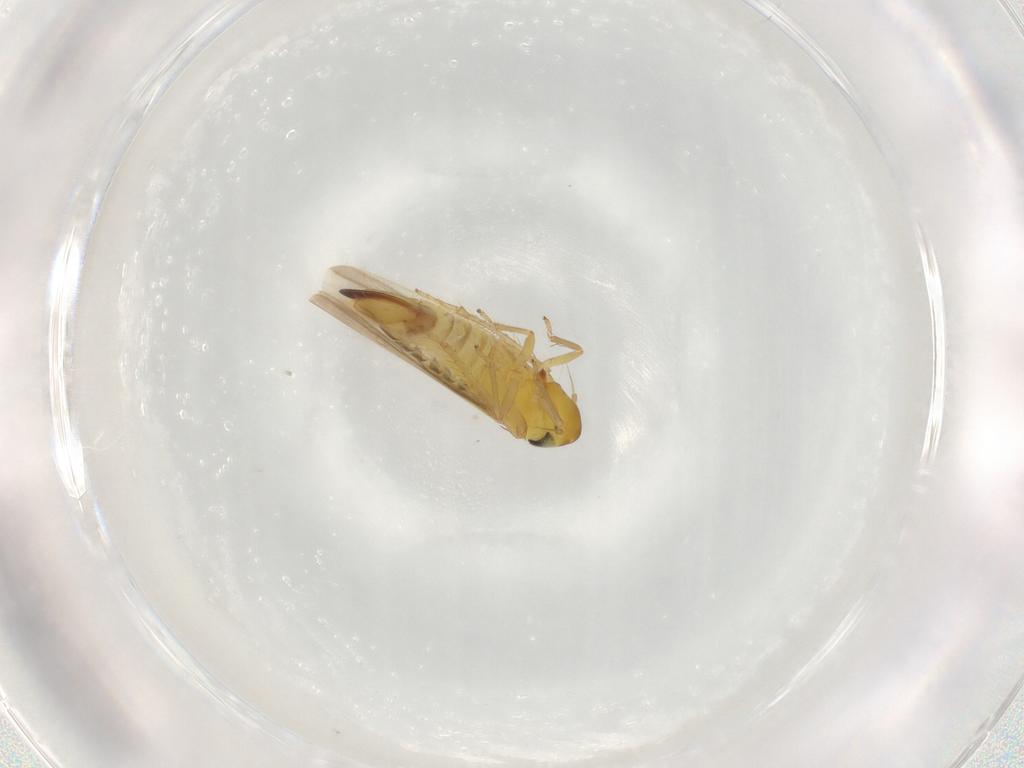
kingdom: Animalia
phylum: Arthropoda
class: Insecta
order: Hemiptera
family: Cicadellidae
